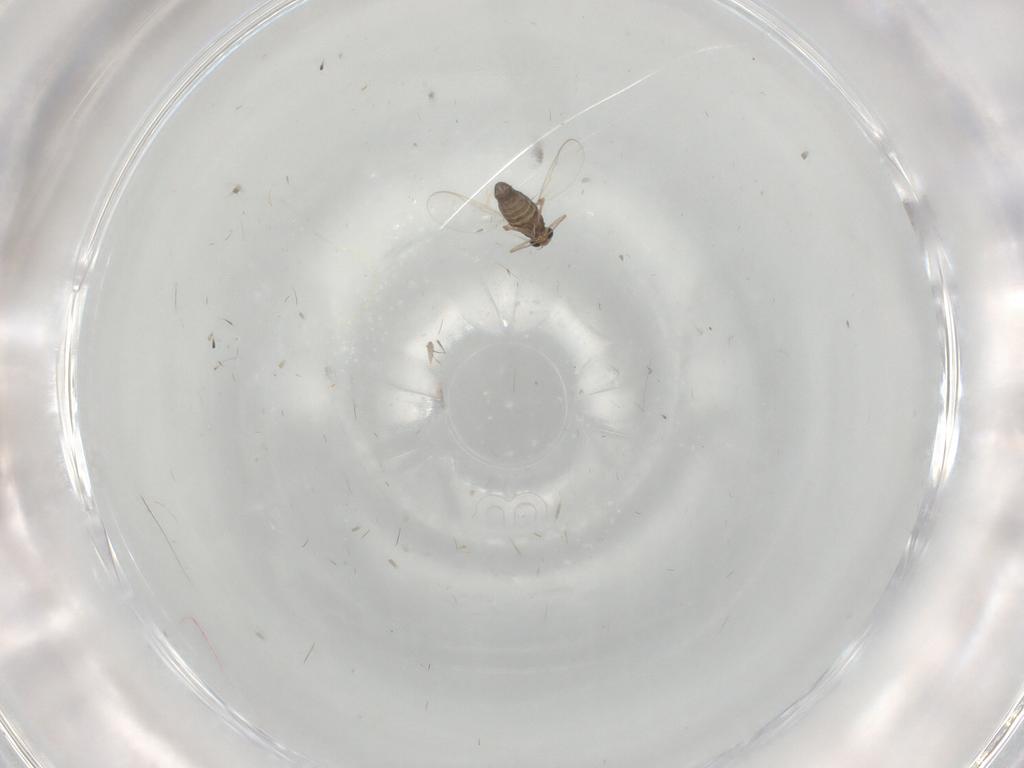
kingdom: Animalia
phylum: Arthropoda
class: Insecta
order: Diptera
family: Chironomidae
